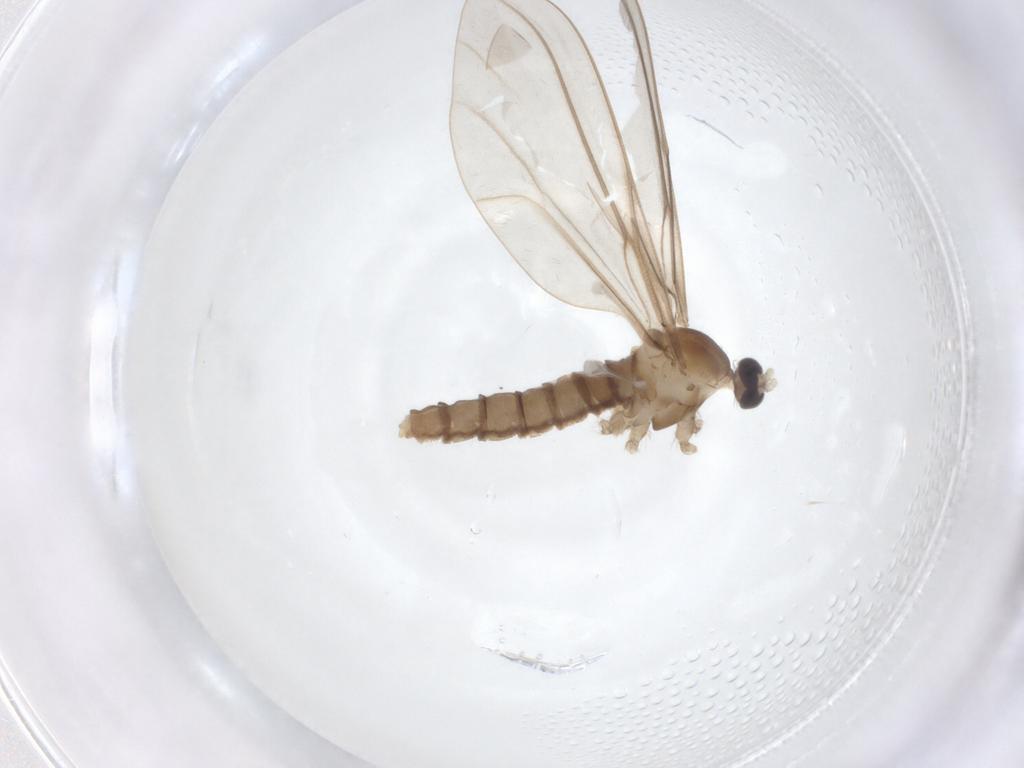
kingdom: Animalia
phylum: Arthropoda
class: Insecta
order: Diptera
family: Cecidomyiidae
